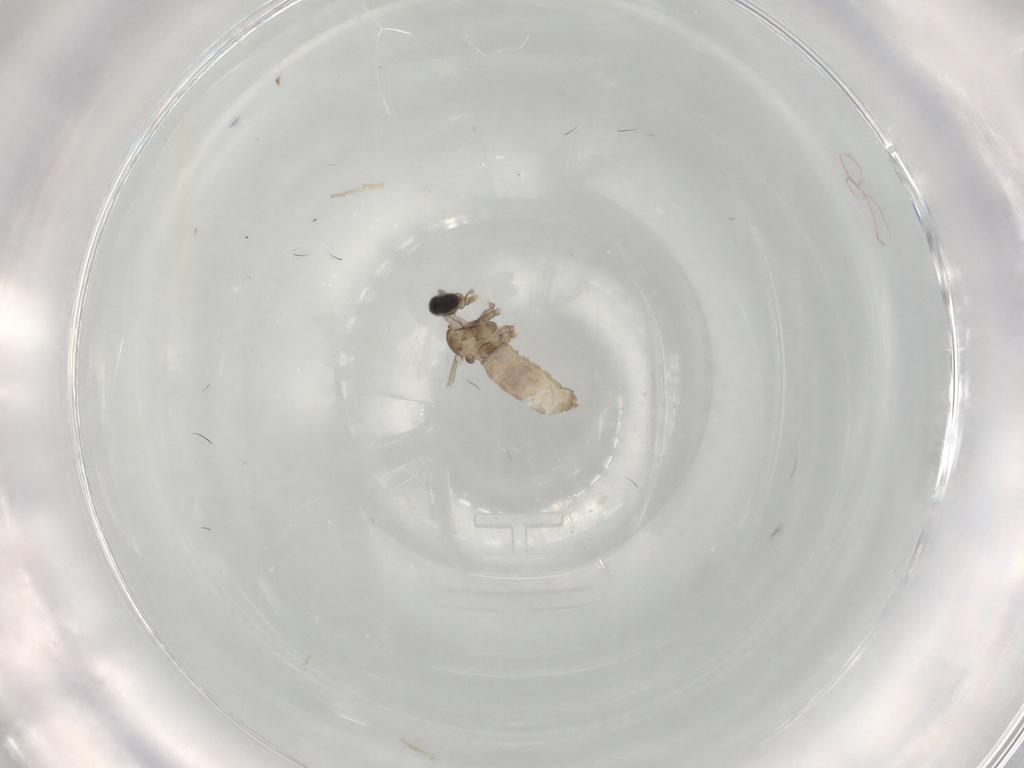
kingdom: Animalia
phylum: Arthropoda
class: Insecta
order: Diptera
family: Cecidomyiidae
